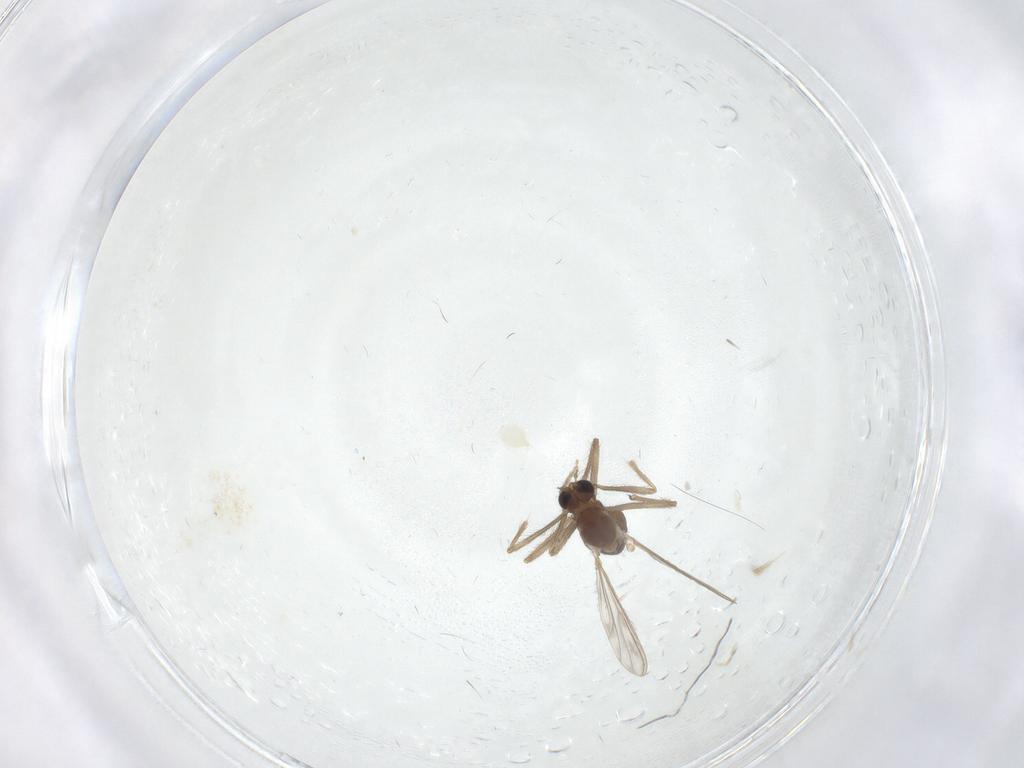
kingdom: Animalia
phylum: Arthropoda
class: Insecta
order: Diptera
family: Chironomidae
